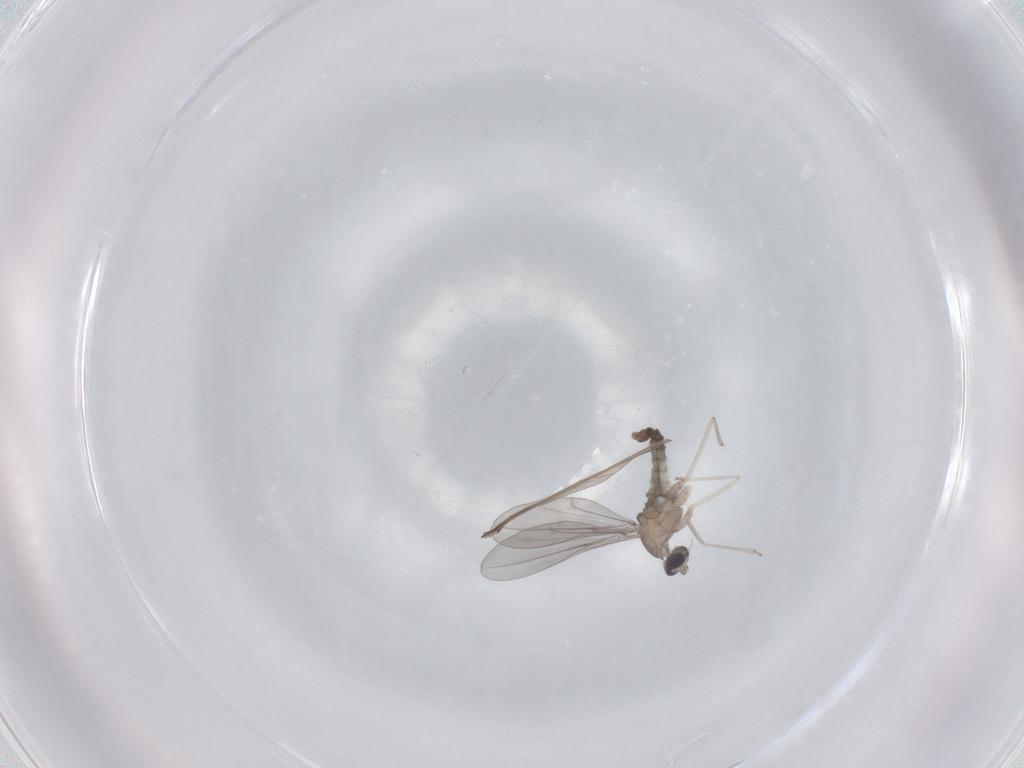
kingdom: Animalia
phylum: Arthropoda
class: Insecta
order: Diptera
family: Cecidomyiidae
